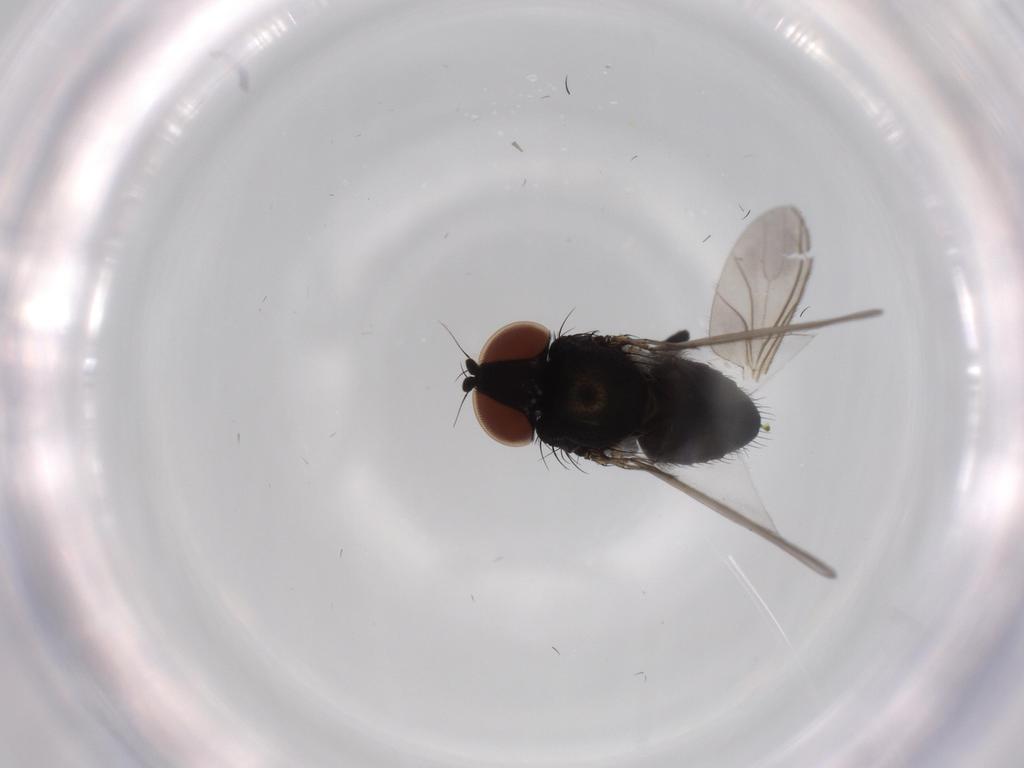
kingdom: Animalia
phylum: Arthropoda
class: Insecta
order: Diptera
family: Milichiidae
